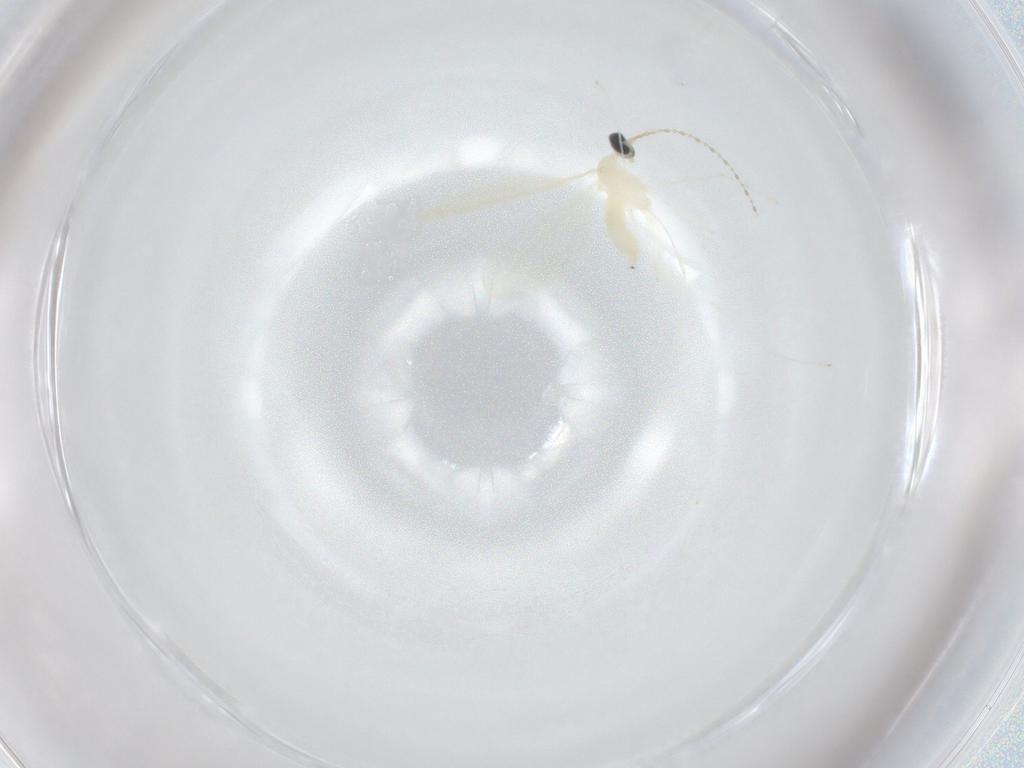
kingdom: Animalia
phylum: Arthropoda
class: Insecta
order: Diptera
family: Cecidomyiidae
